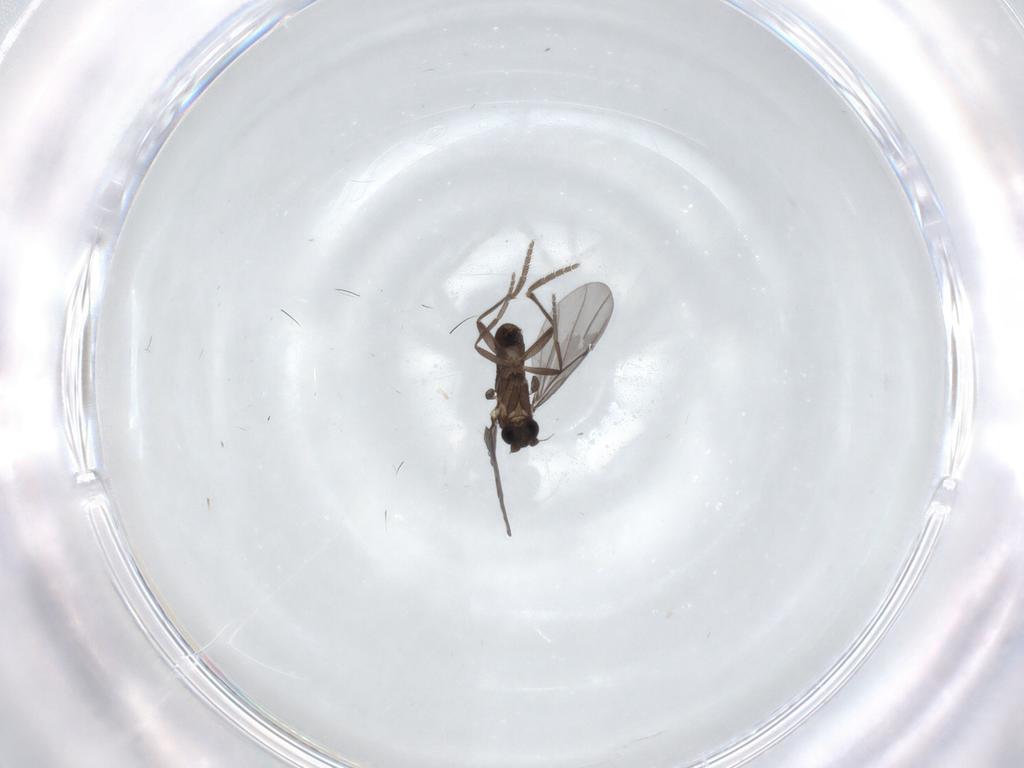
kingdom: Animalia
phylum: Arthropoda
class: Insecta
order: Diptera
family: Phoridae
